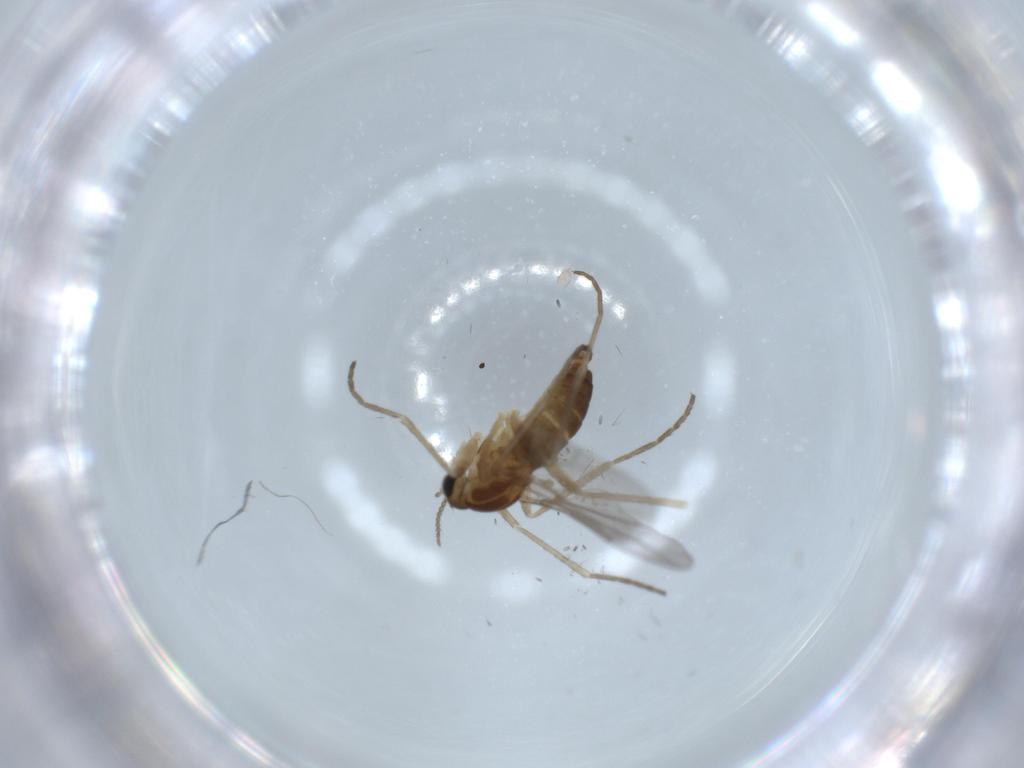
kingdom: Animalia
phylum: Arthropoda
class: Insecta
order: Diptera
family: Cecidomyiidae
